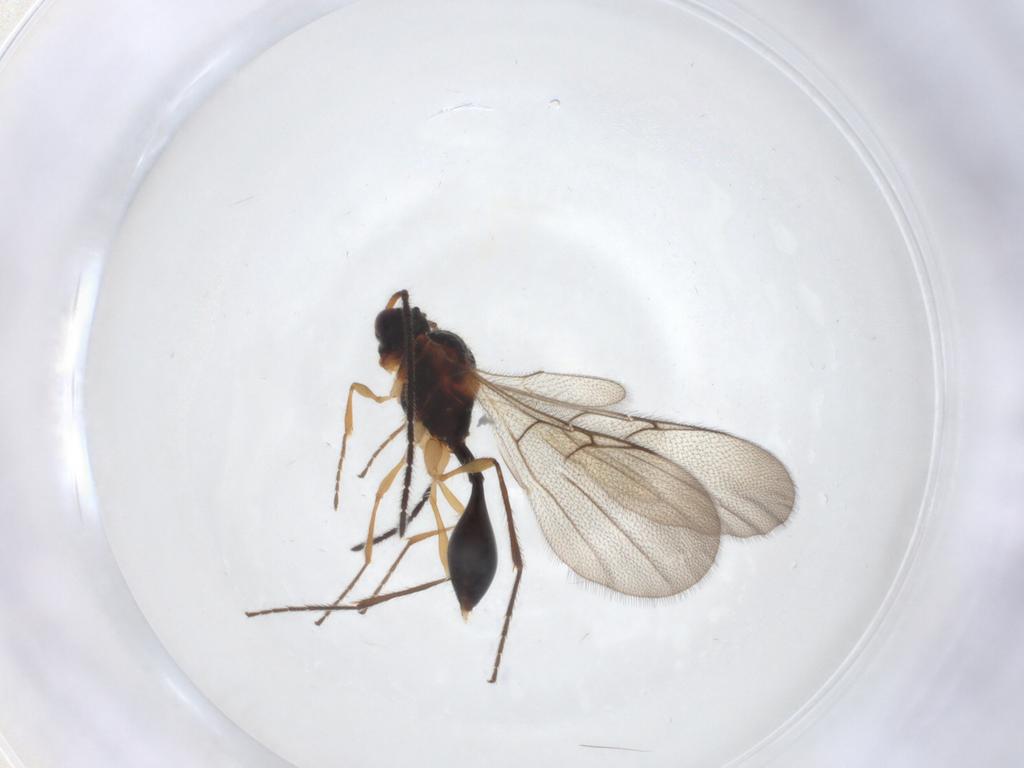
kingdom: Animalia
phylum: Arthropoda
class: Insecta
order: Hymenoptera
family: Diapriidae
